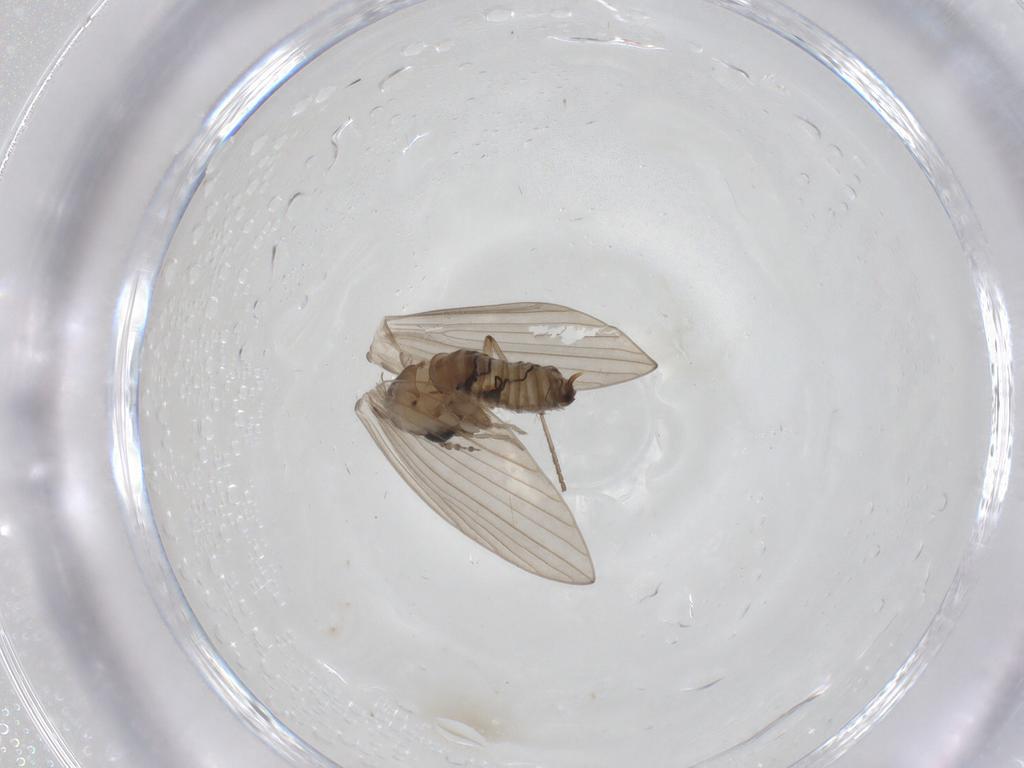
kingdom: Animalia
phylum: Arthropoda
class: Insecta
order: Diptera
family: Psychodidae
